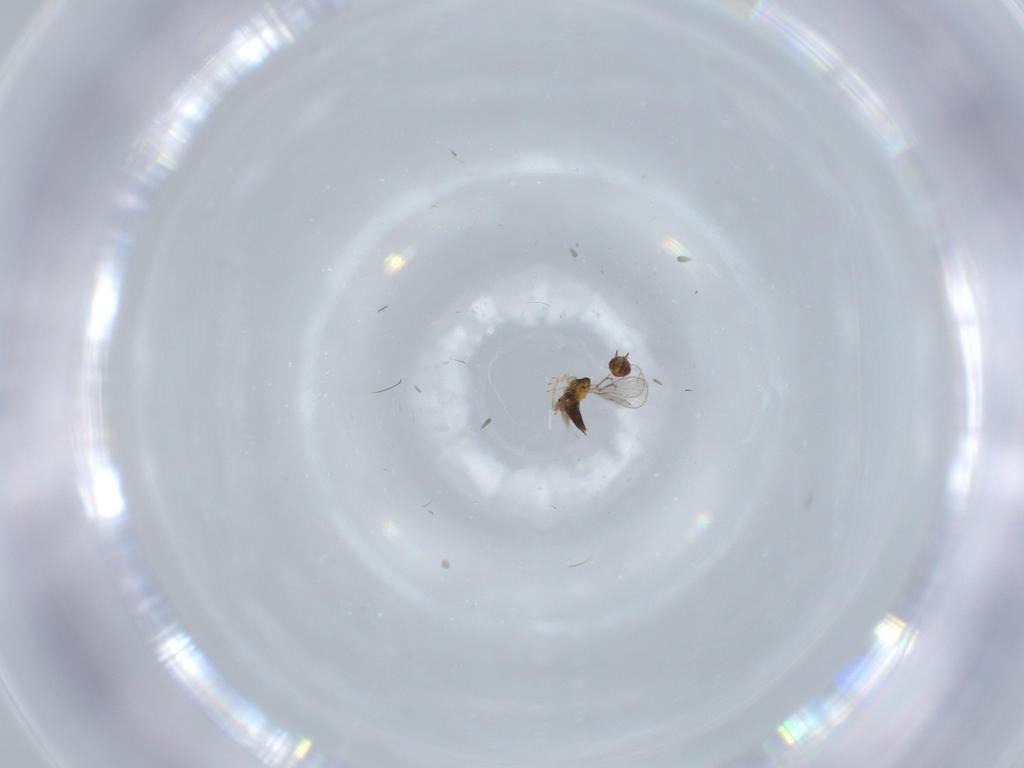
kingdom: Animalia
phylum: Arthropoda
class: Insecta
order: Hymenoptera
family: Trichogrammatidae
